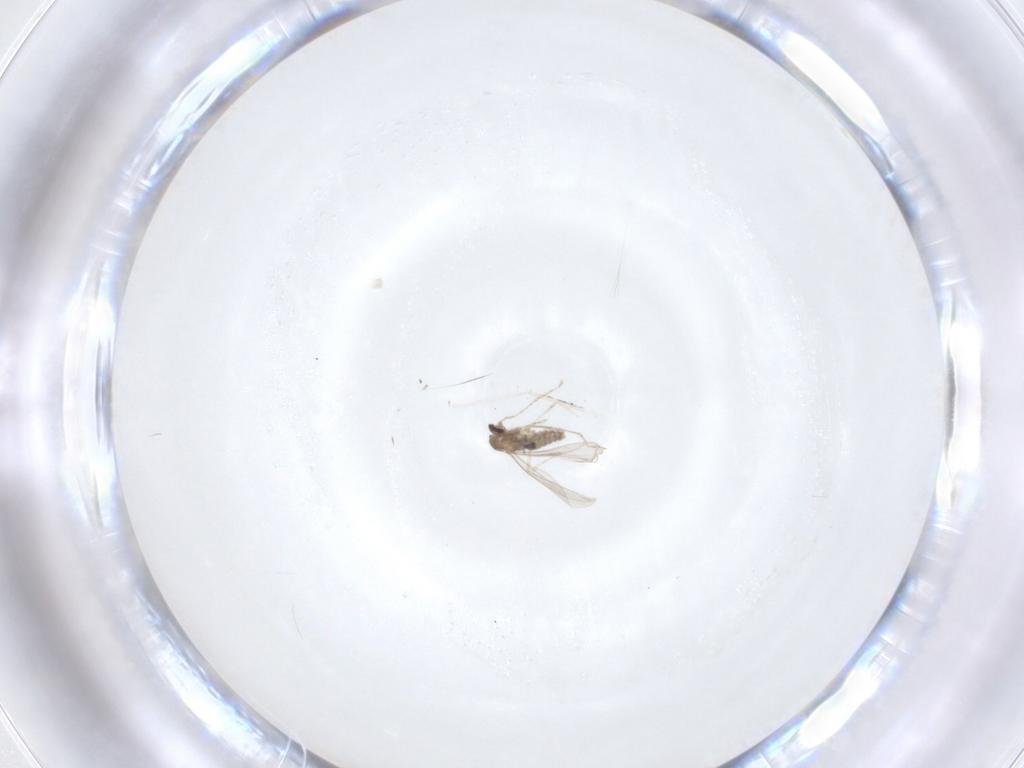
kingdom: Animalia
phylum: Arthropoda
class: Insecta
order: Diptera
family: Cecidomyiidae
